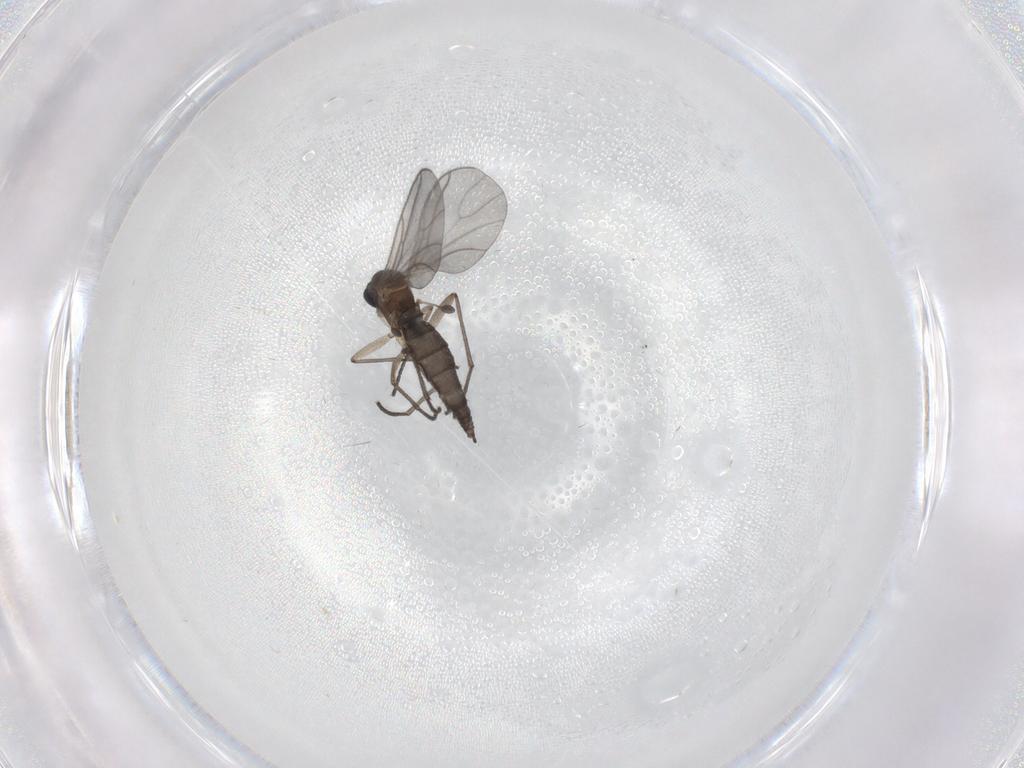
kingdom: Animalia
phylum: Arthropoda
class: Insecta
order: Diptera
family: Sciaridae
